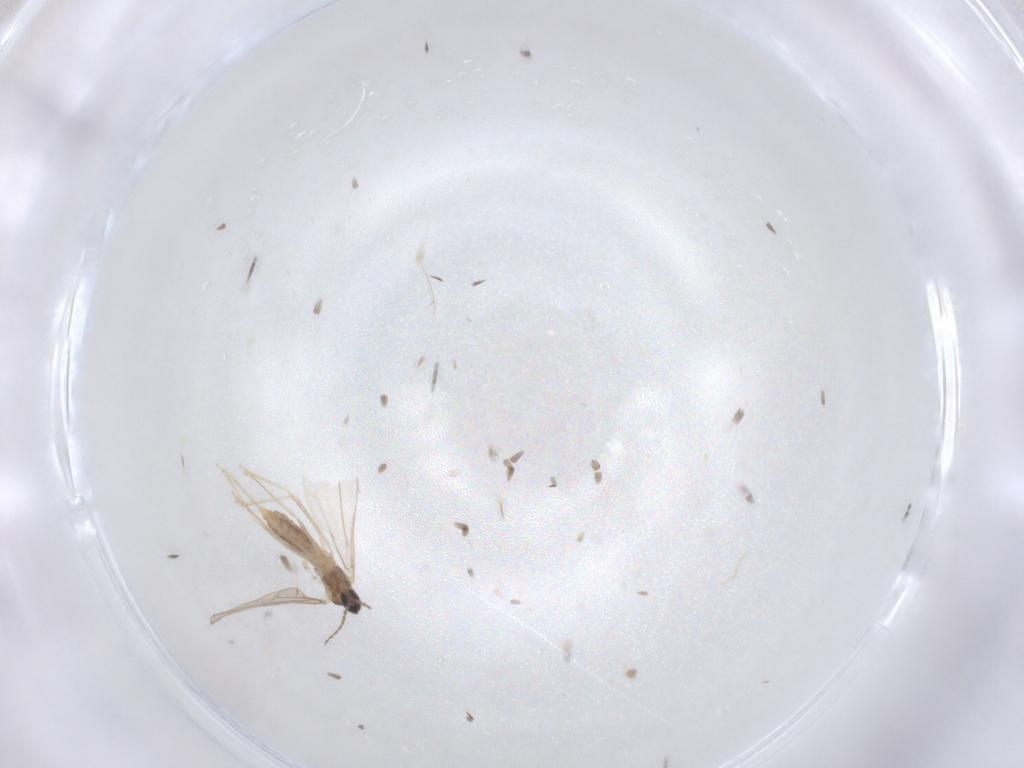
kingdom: Animalia
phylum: Arthropoda
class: Insecta
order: Diptera
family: Cecidomyiidae
